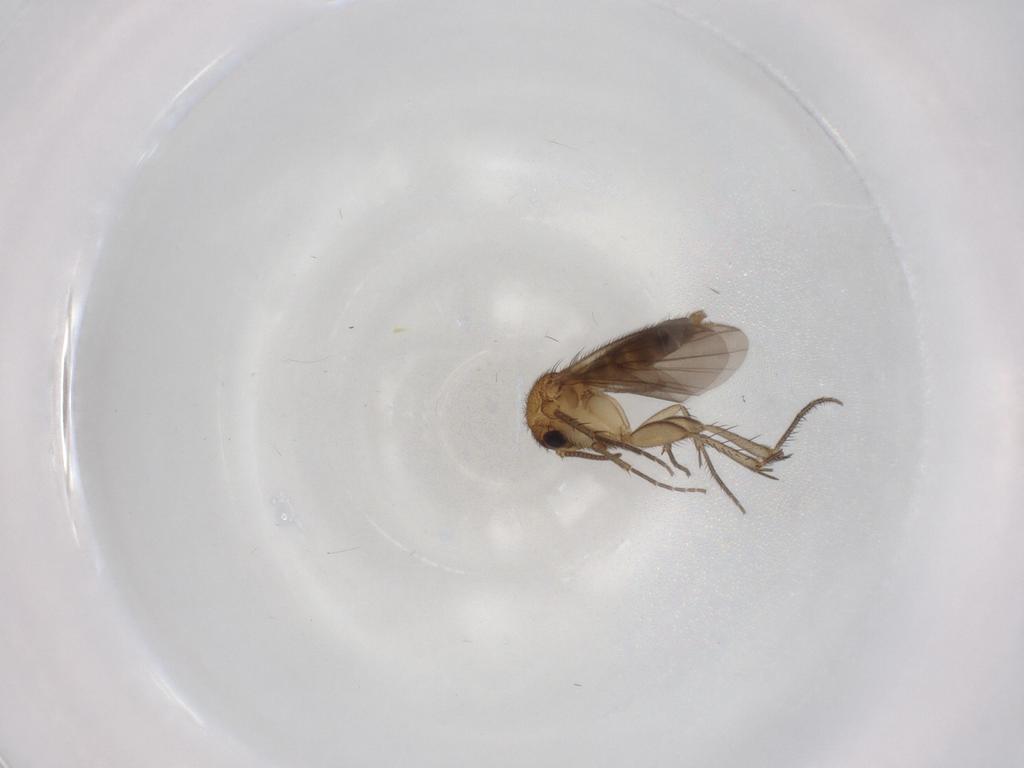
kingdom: Animalia
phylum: Arthropoda
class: Insecta
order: Diptera
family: Mycetophilidae
